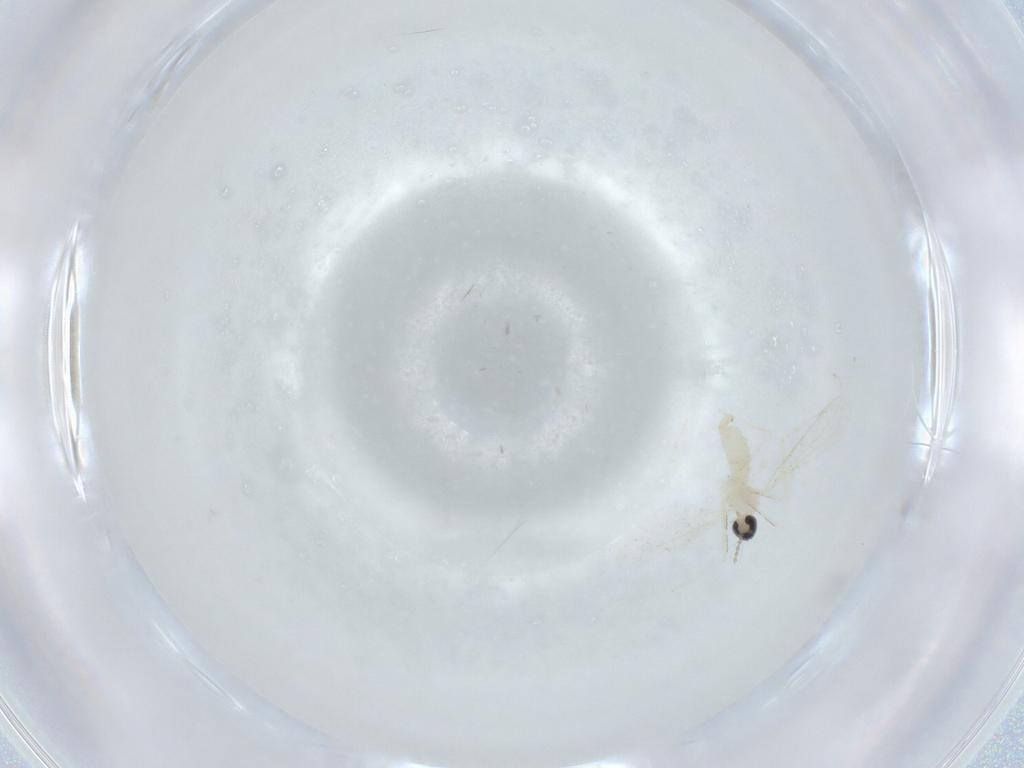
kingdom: Animalia
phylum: Arthropoda
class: Insecta
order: Diptera
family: Cecidomyiidae
